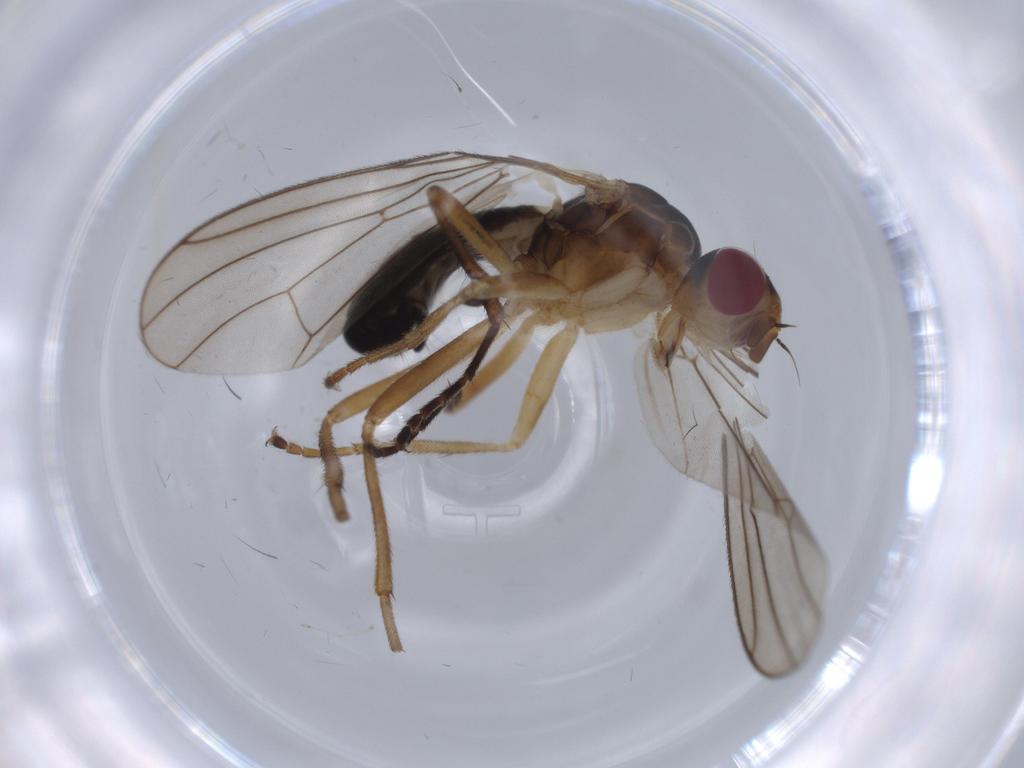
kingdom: Animalia
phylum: Arthropoda
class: Insecta
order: Diptera
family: Scathophagidae
